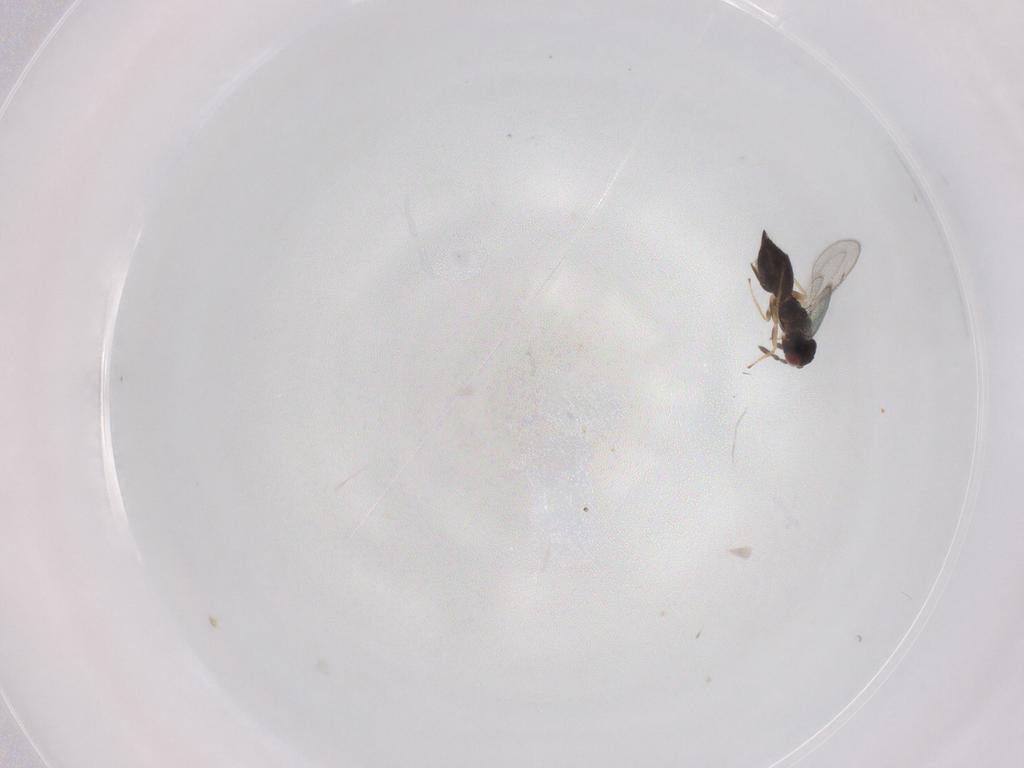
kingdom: Animalia
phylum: Arthropoda
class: Insecta
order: Hymenoptera
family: Eulophidae
